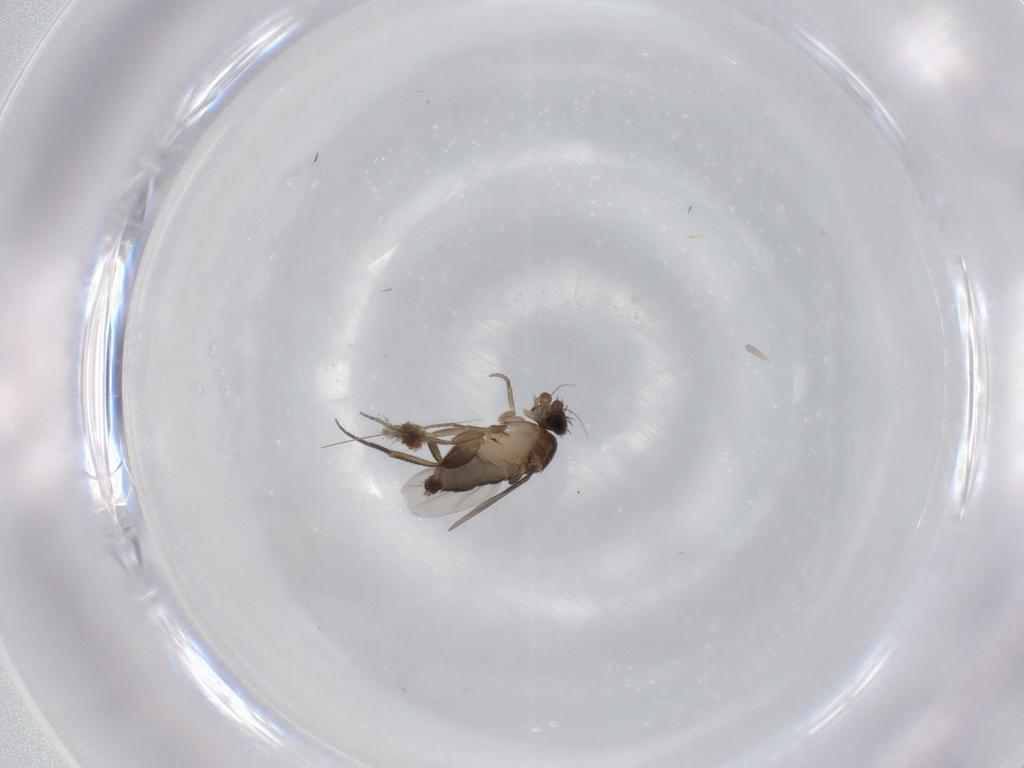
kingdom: Animalia
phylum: Arthropoda
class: Insecta
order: Diptera
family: Phoridae
